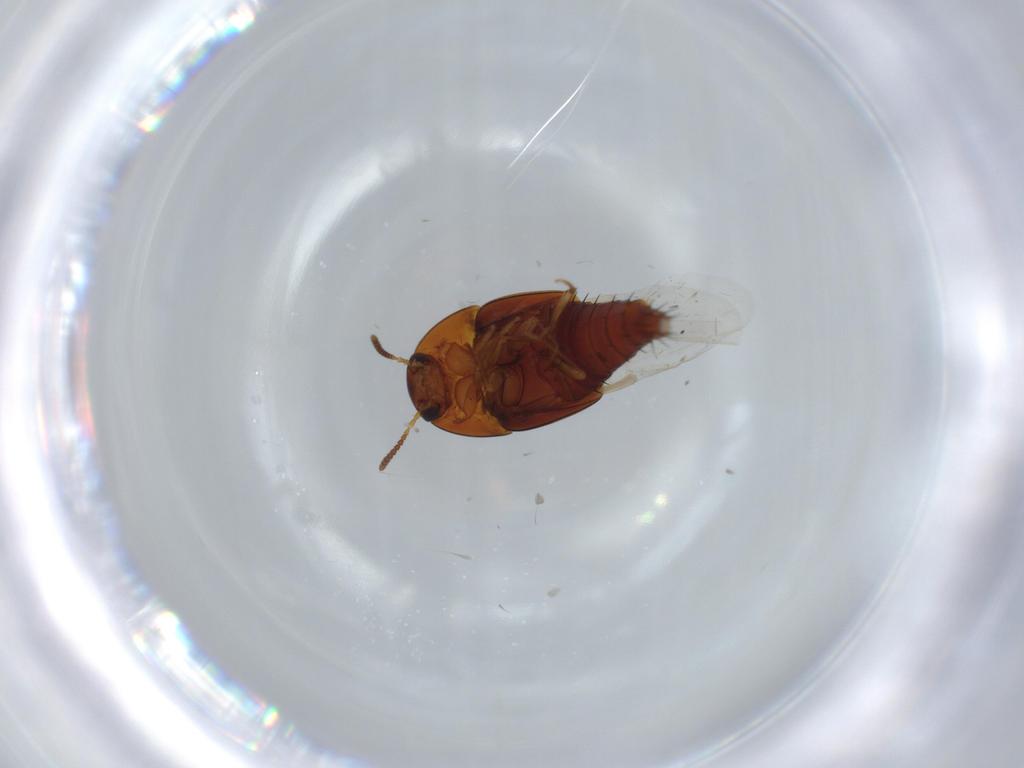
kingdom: Animalia
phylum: Arthropoda
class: Insecta
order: Coleoptera
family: Staphylinidae
